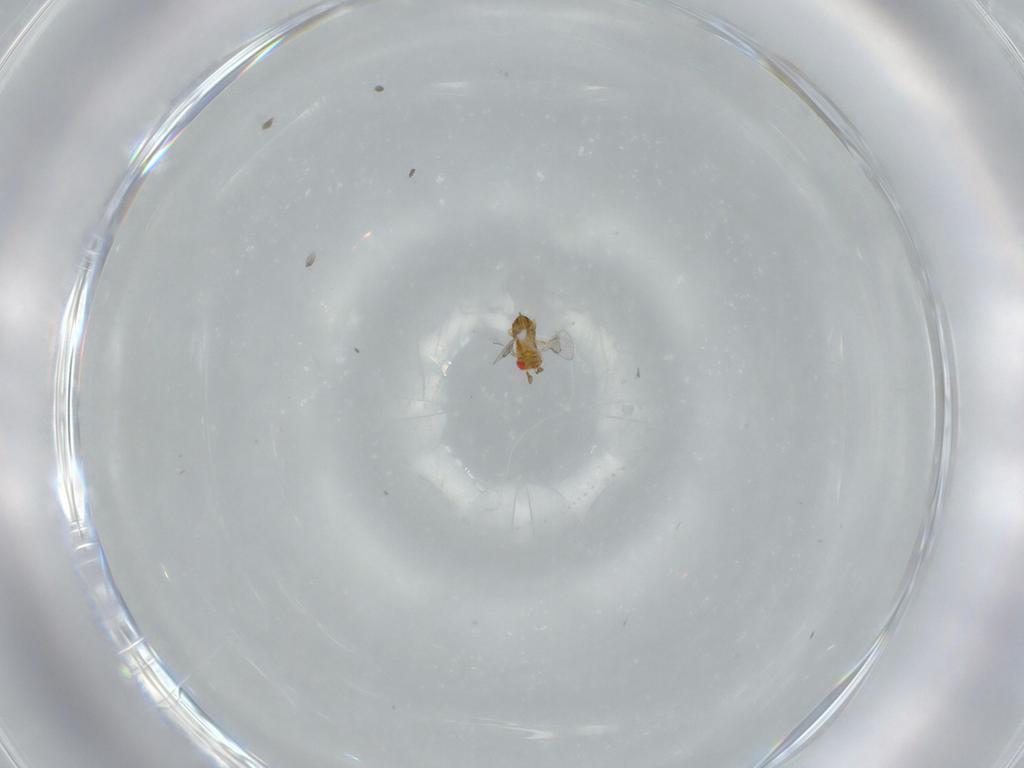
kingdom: Animalia
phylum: Arthropoda
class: Insecta
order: Hymenoptera
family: Trichogrammatidae
